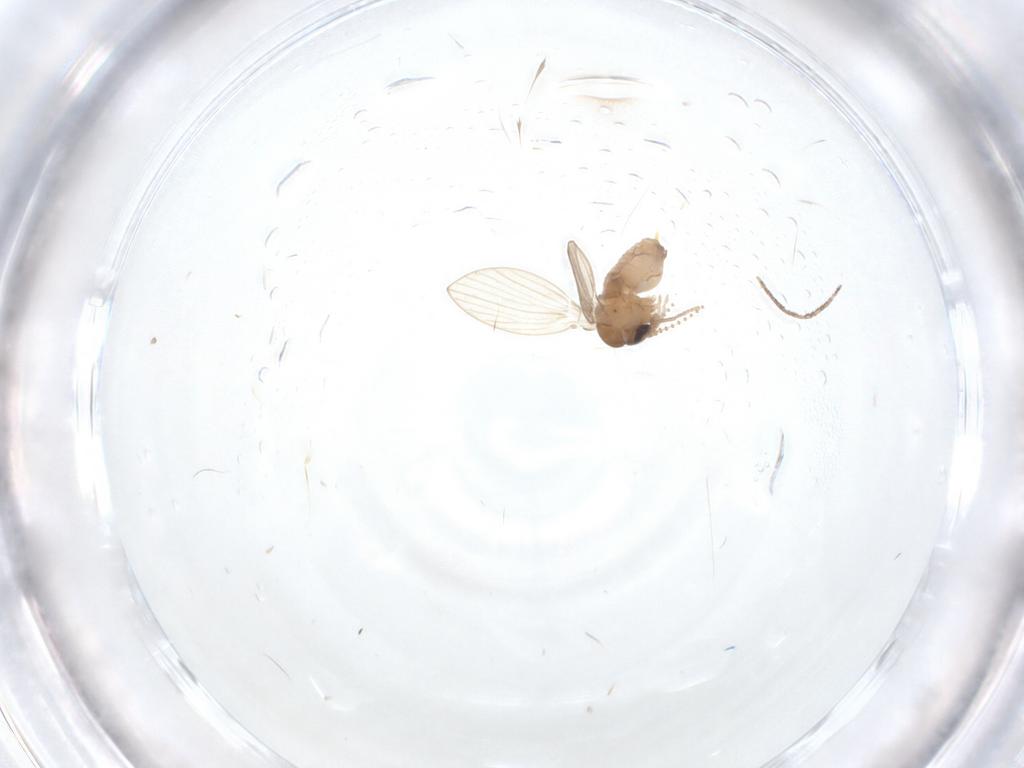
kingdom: Animalia
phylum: Arthropoda
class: Insecta
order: Diptera
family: Psychodidae
